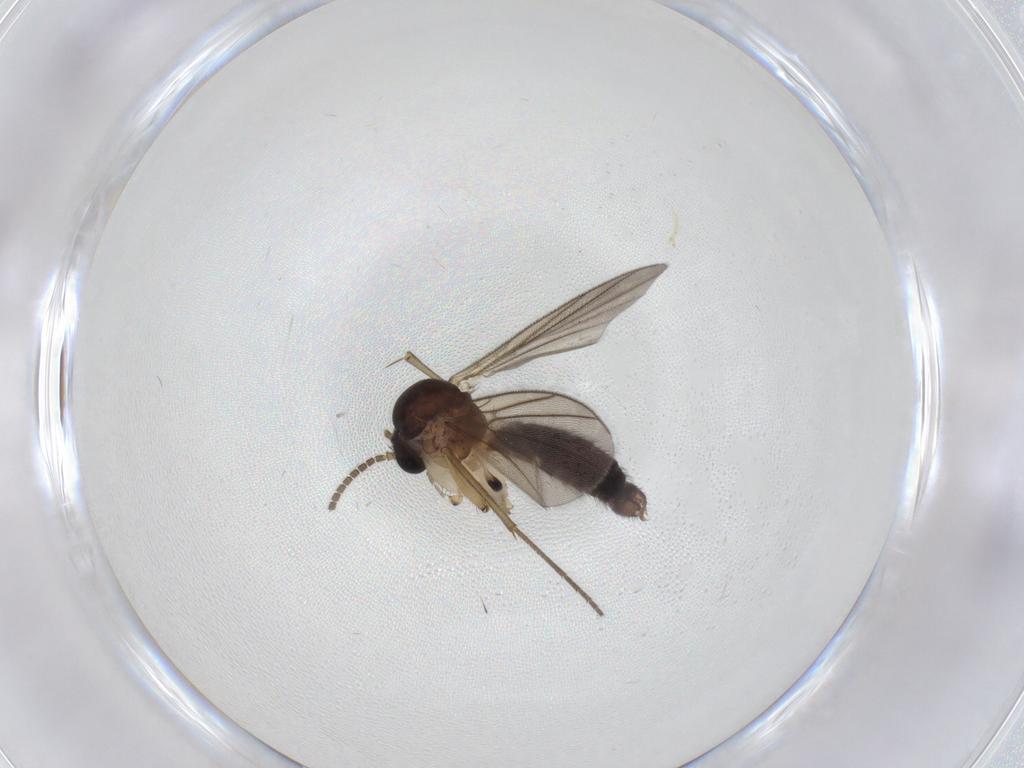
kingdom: Animalia
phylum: Arthropoda
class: Insecta
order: Diptera
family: Mycetophilidae
